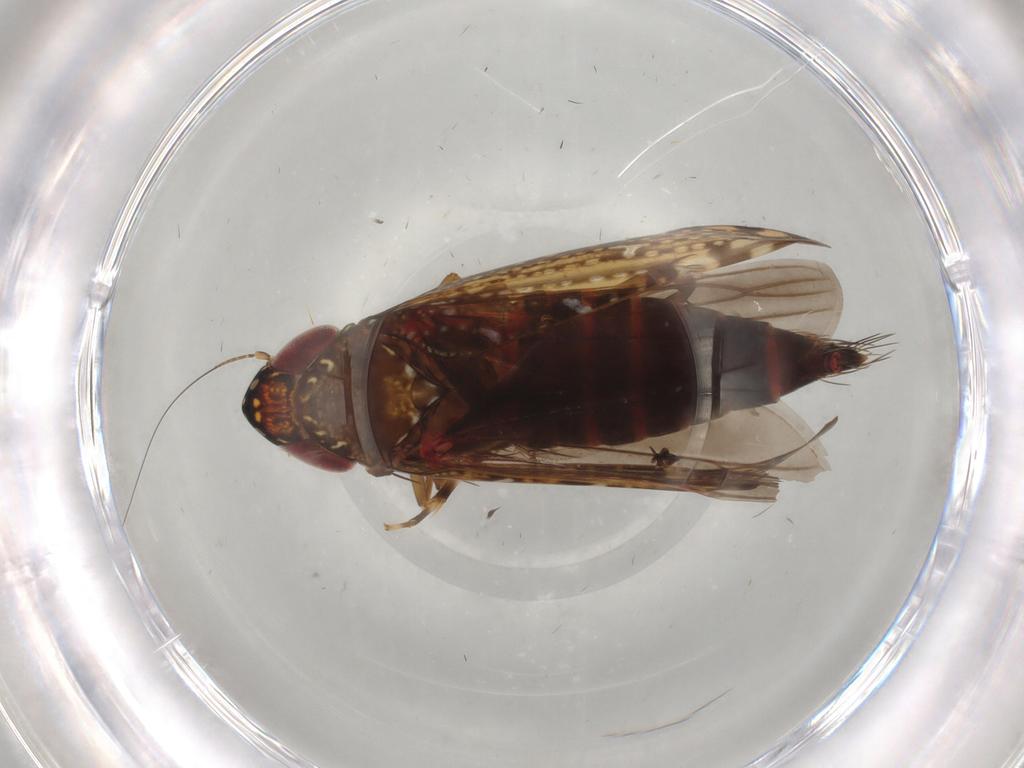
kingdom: Animalia
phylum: Arthropoda
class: Insecta
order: Hemiptera
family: Cicadellidae
